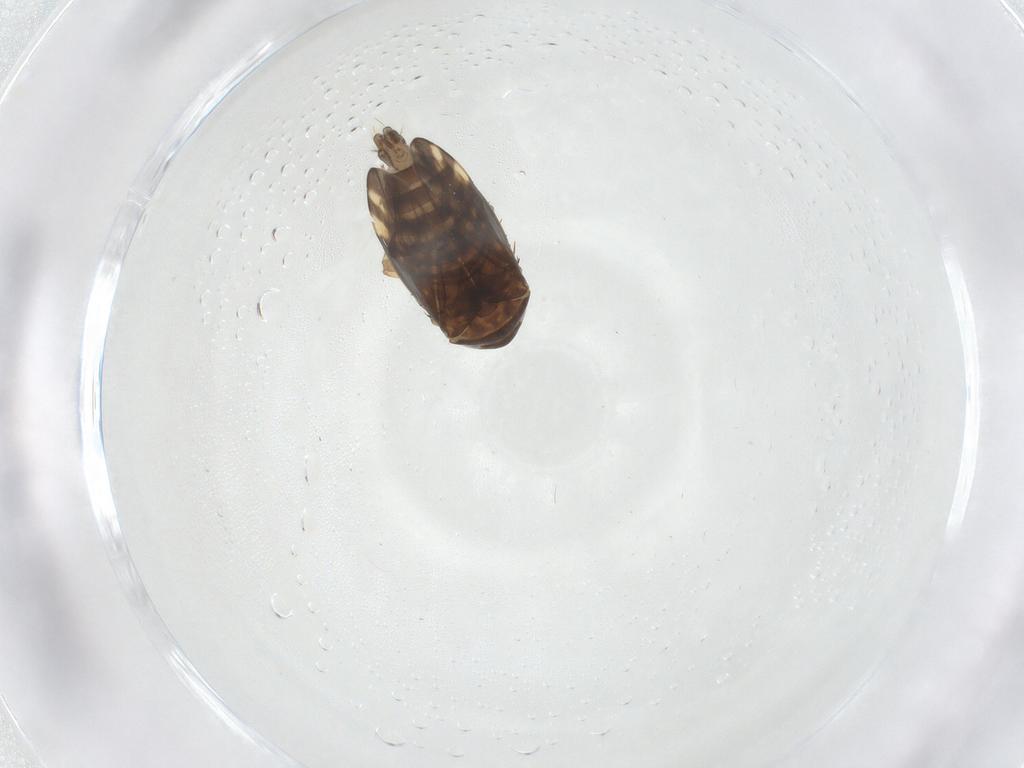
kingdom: Animalia
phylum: Arthropoda
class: Insecta
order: Hemiptera
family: Cicadellidae
